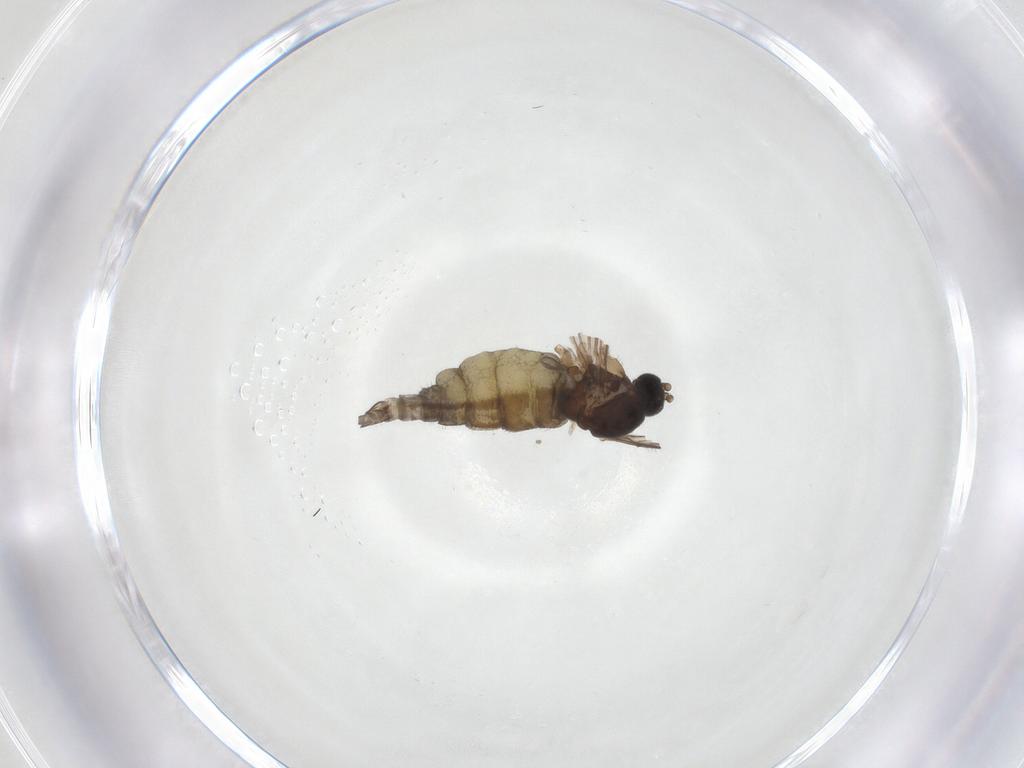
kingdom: Animalia
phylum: Arthropoda
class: Insecta
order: Diptera
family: Sciaridae
